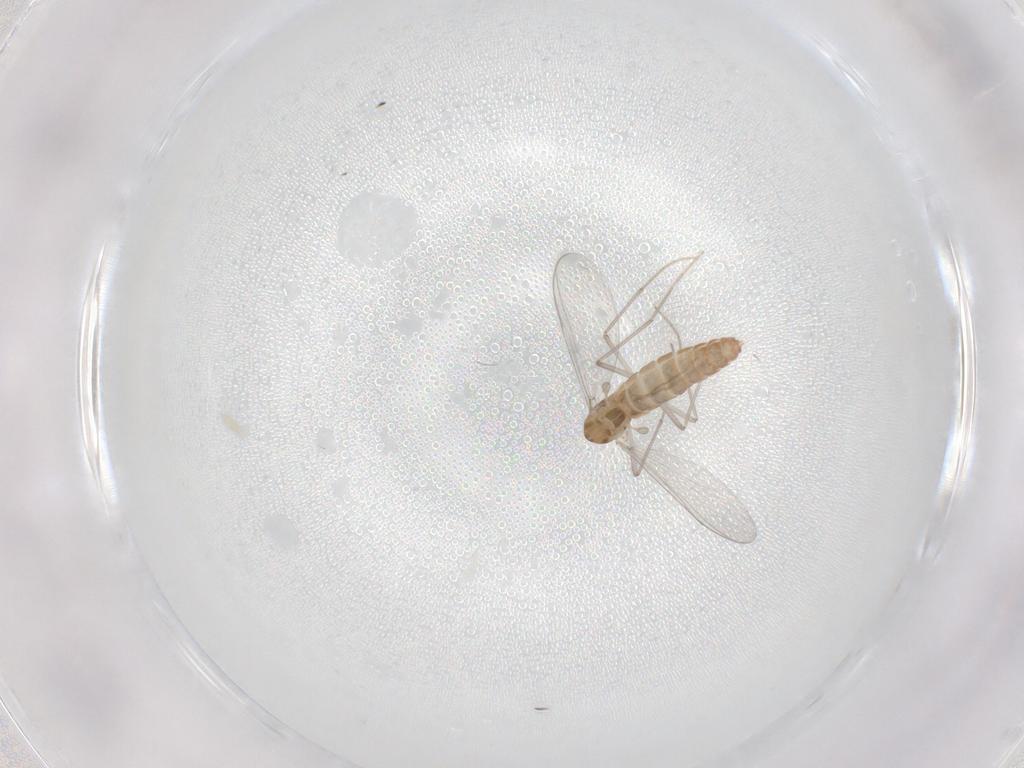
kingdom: Animalia
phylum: Arthropoda
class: Insecta
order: Diptera
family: Chironomidae
